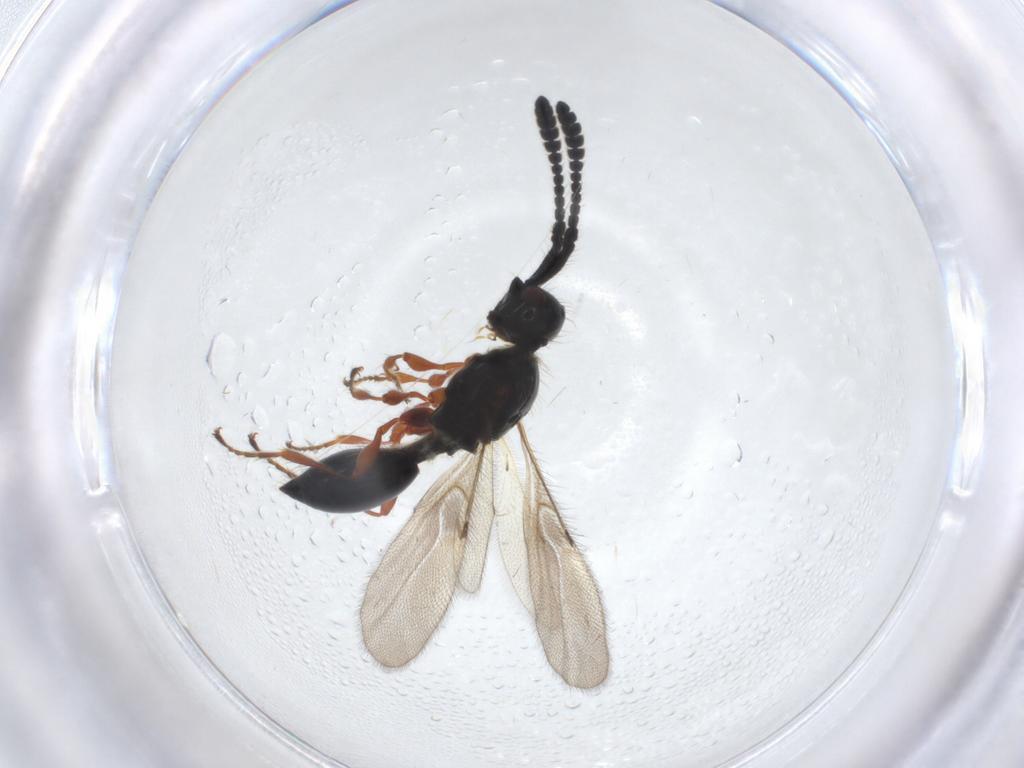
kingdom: Animalia
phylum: Arthropoda
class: Insecta
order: Hymenoptera
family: Diapriidae
